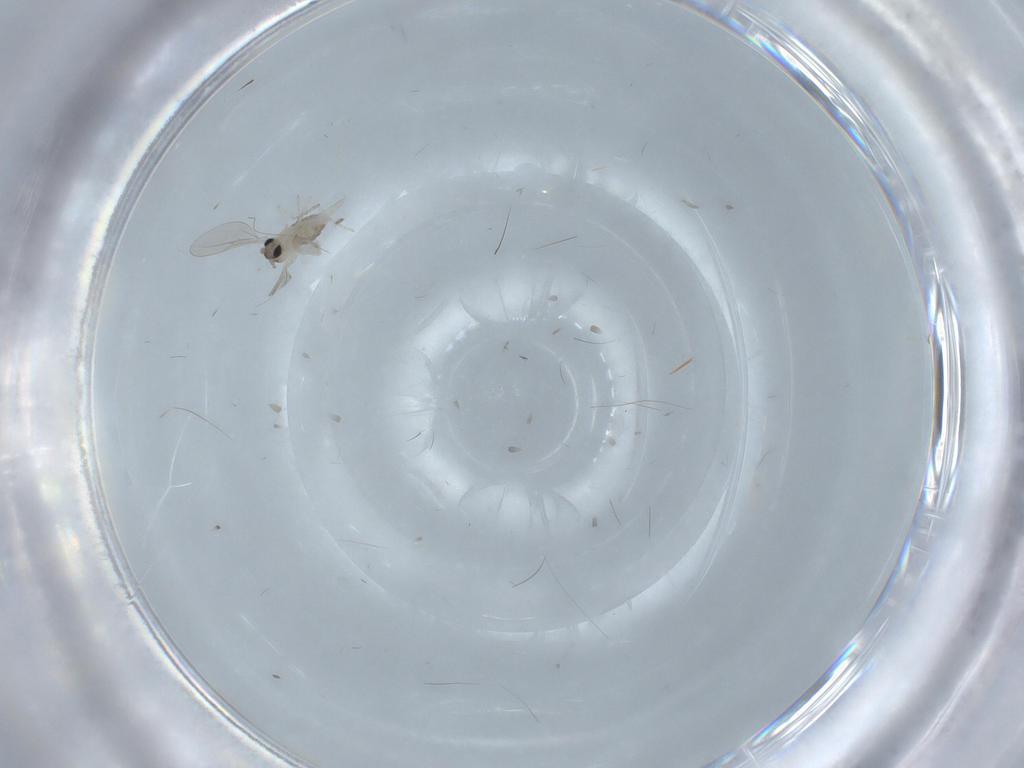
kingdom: Animalia
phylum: Arthropoda
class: Insecta
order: Diptera
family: Cecidomyiidae
